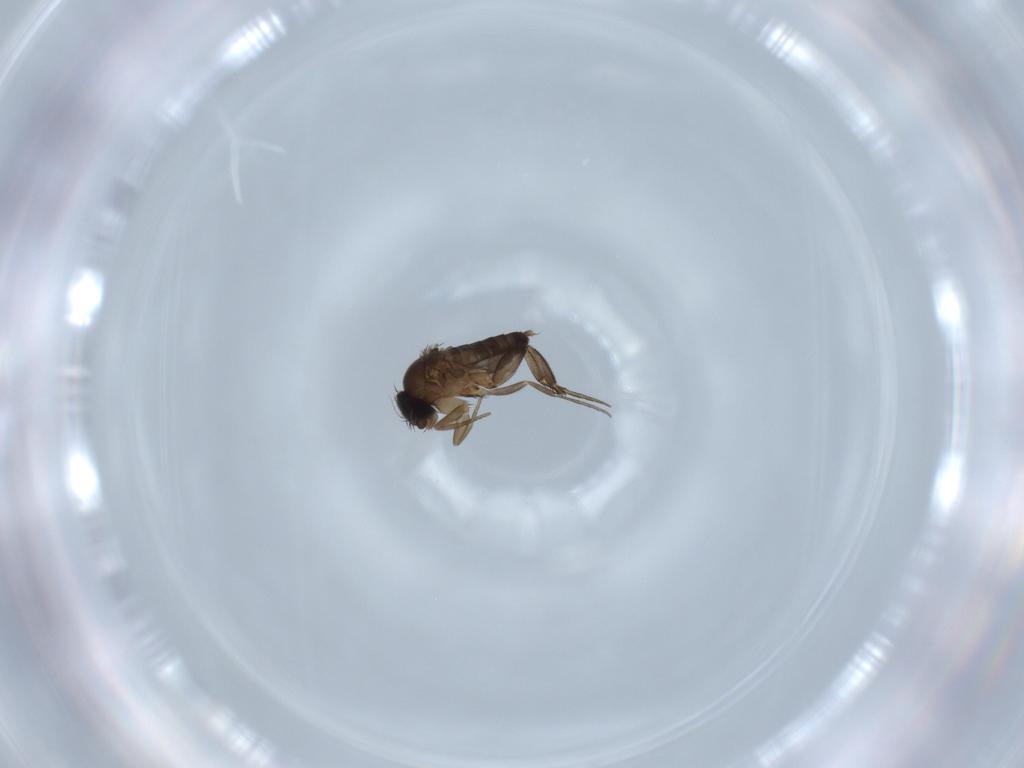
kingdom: Animalia
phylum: Arthropoda
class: Insecta
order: Diptera
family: Sciaridae
